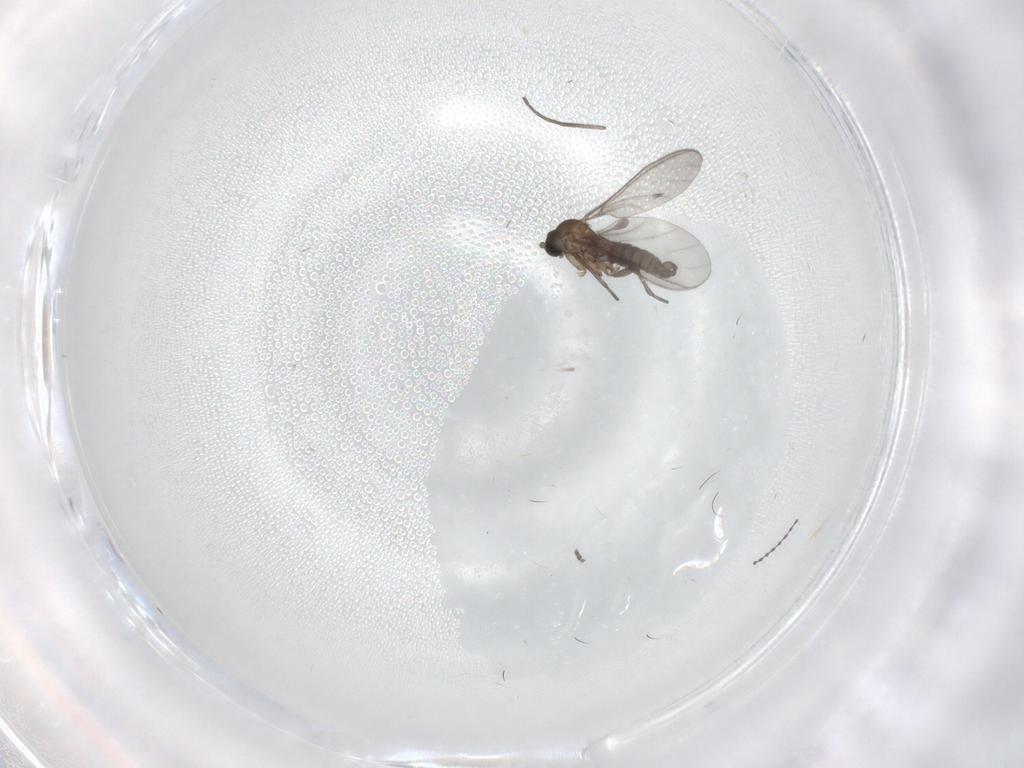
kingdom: Animalia
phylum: Arthropoda
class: Insecta
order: Diptera
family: Sciaridae
